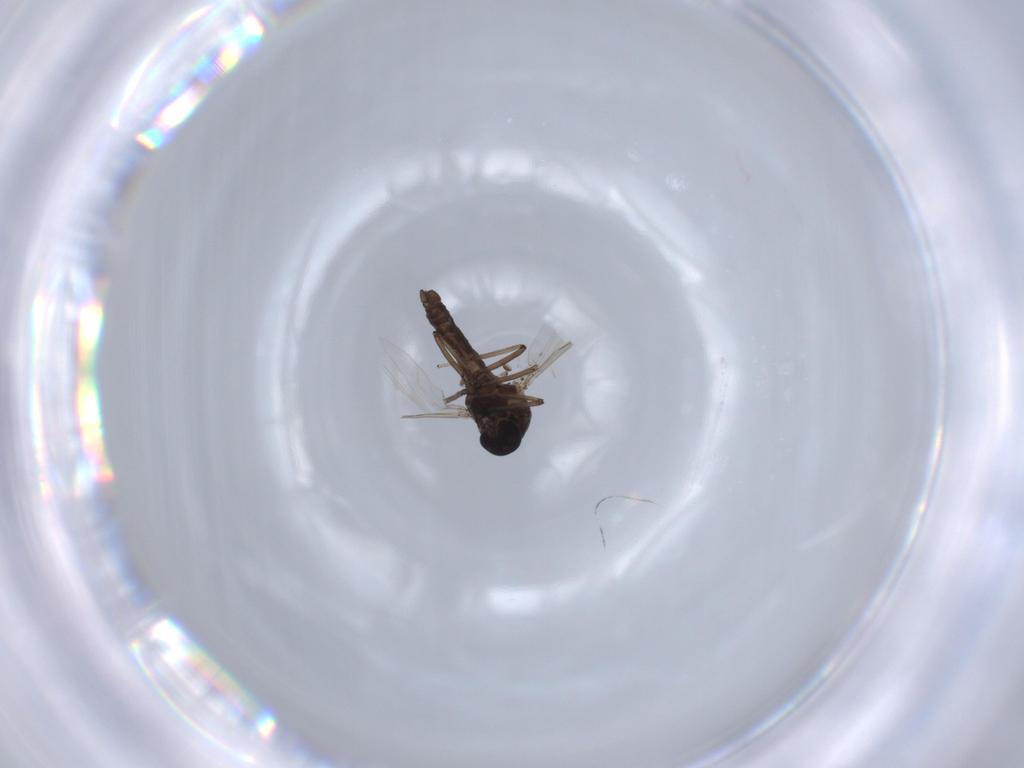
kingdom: Animalia
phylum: Arthropoda
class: Insecta
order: Diptera
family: Ceratopogonidae
